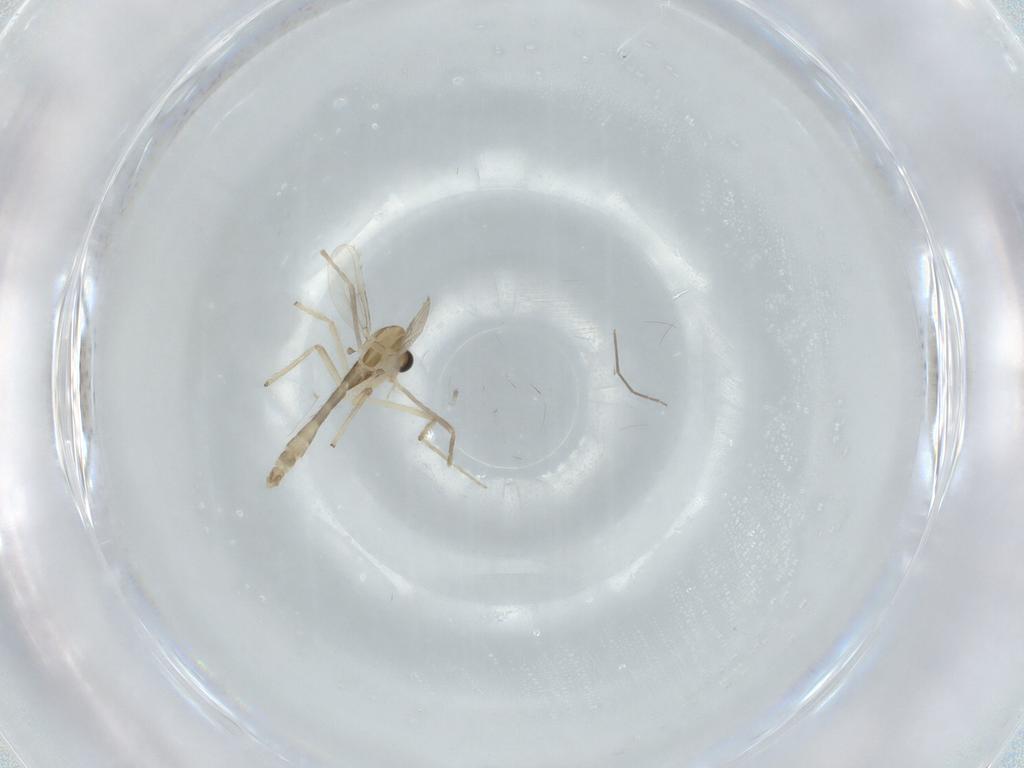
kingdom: Animalia
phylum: Arthropoda
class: Insecta
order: Diptera
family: Chironomidae
